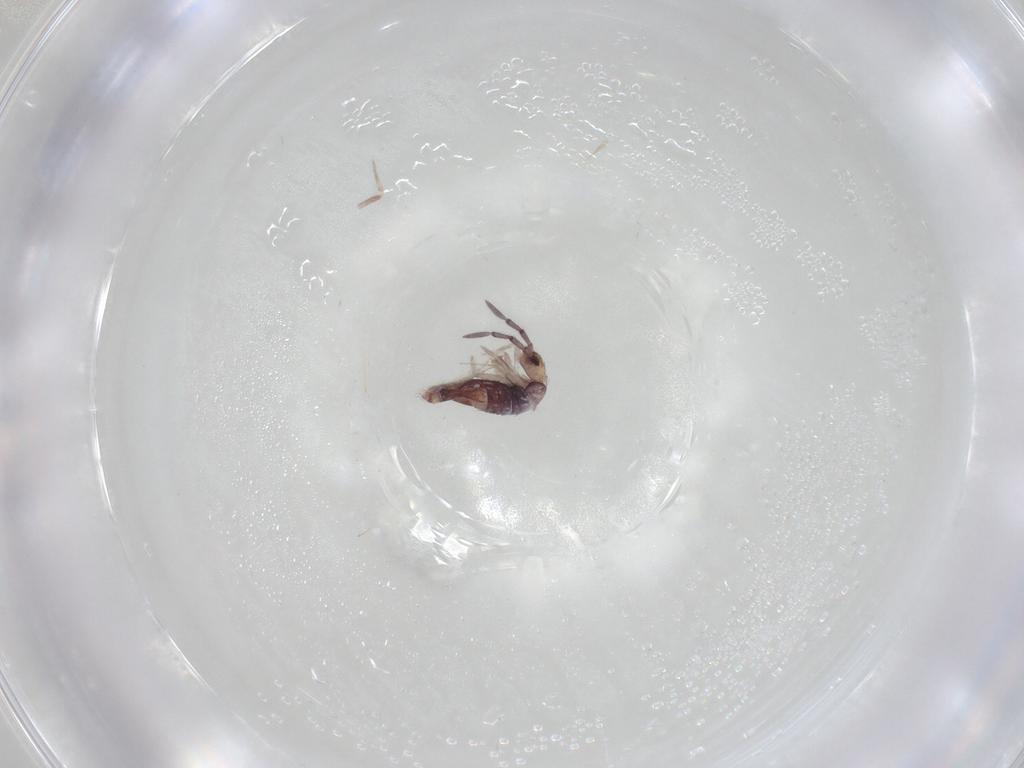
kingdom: Animalia
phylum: Arthropoda
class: Collembola
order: Entomobryomorpha
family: Entomobryidae
